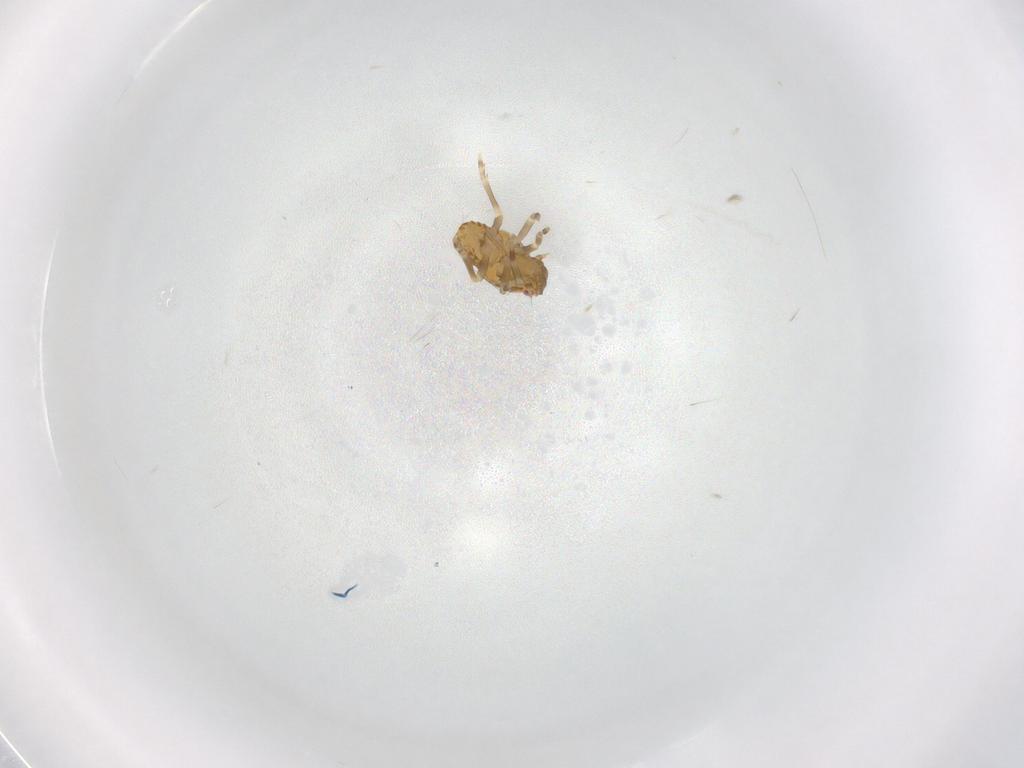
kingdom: Animalia
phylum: Arthropoda
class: Insecta
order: Hemiptera
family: Flatidae
